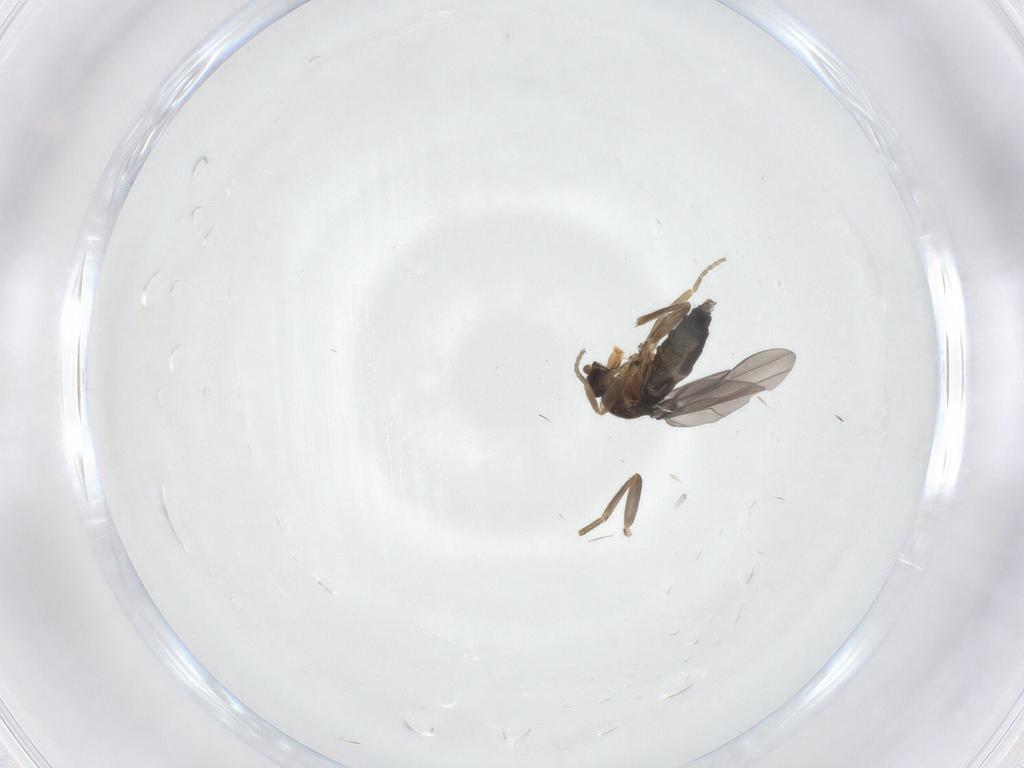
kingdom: Animalia
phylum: Arthropoda
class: Insecta
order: Diptera
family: Phoridae
